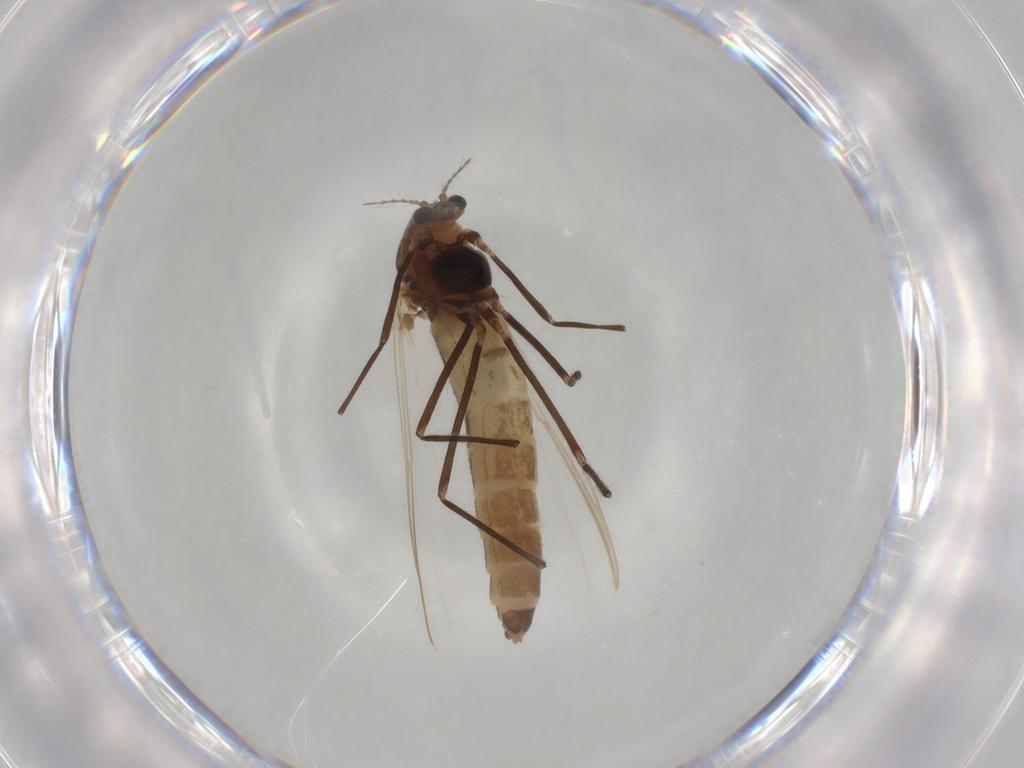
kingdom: Animalia
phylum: Arthropoda
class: Insecta
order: Diptera
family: Chironomidae
